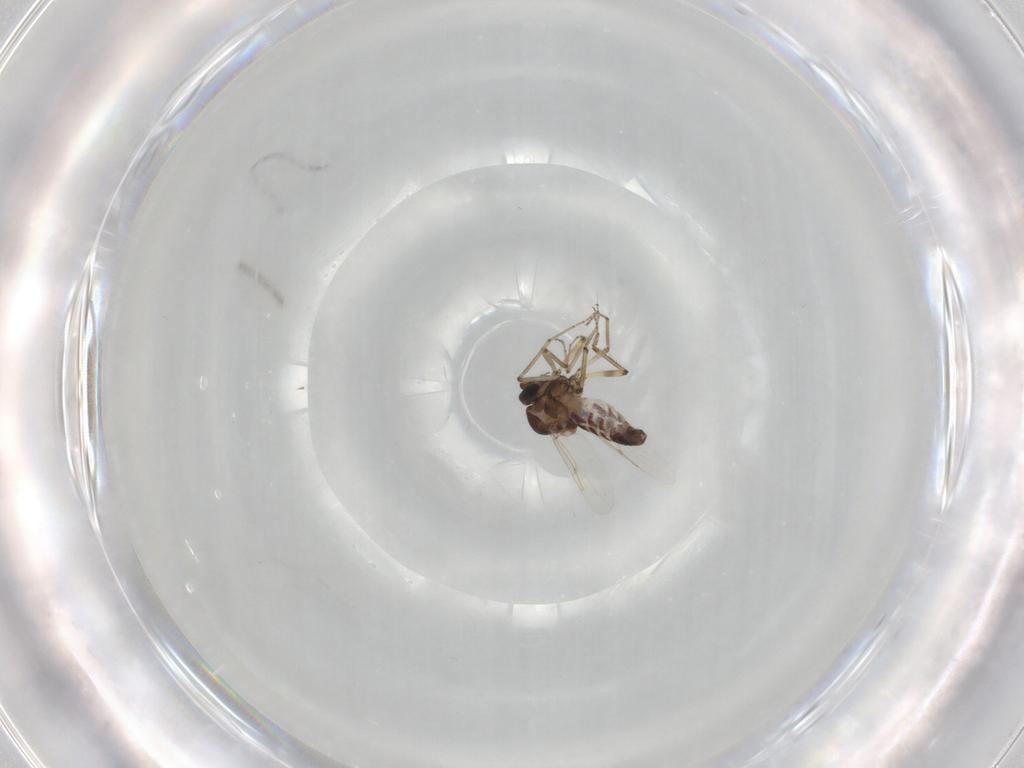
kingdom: Animalia
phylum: Arthropoda
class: Insecta
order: Diptera
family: Ceratopogonidae
